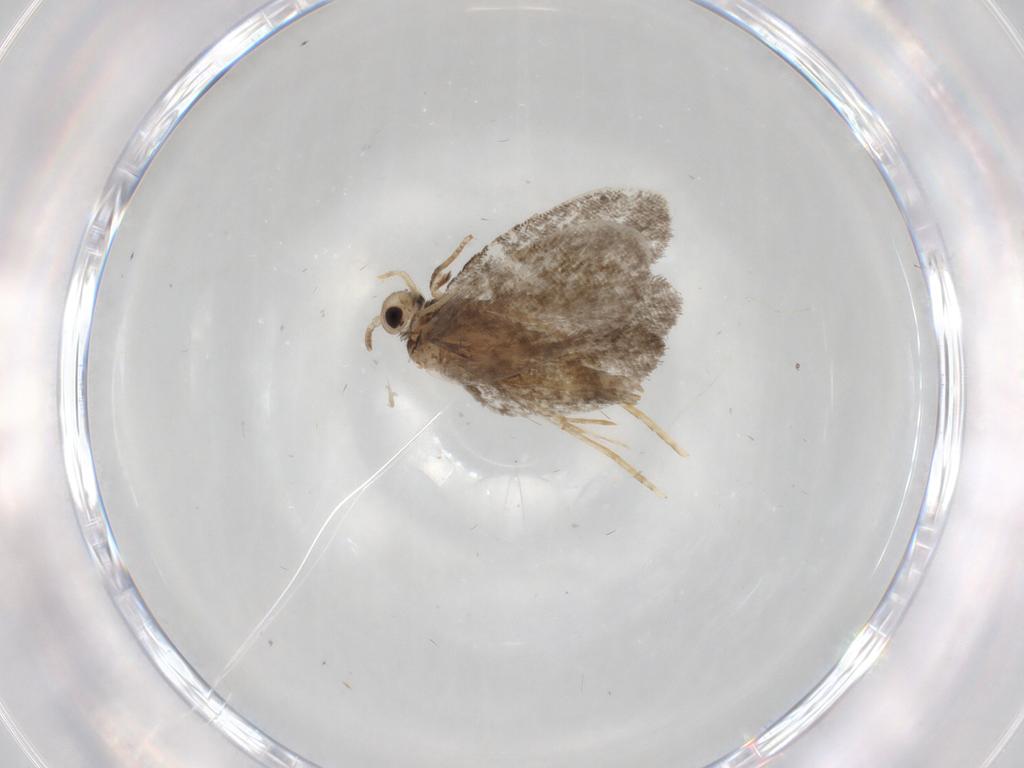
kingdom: Animalia
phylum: Arthropoda
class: Insecta
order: Lepidoptera
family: Psychidae
